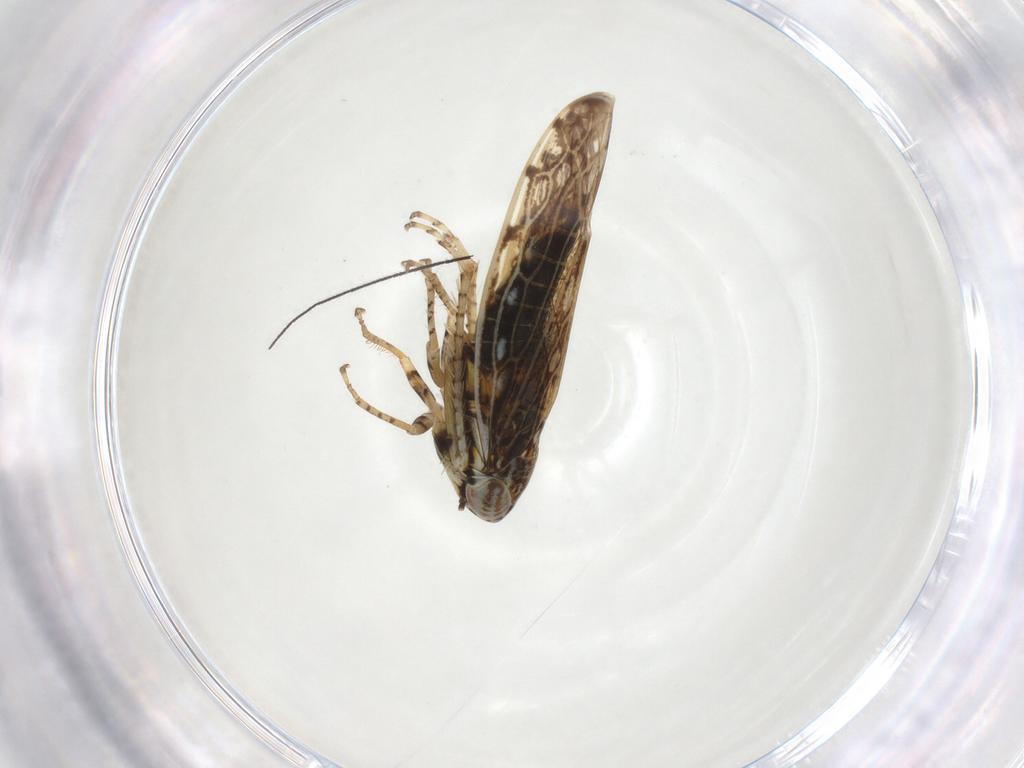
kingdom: Animalia
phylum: Arthropoda
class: Insecta
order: Hemiptera
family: Cicadellidae
